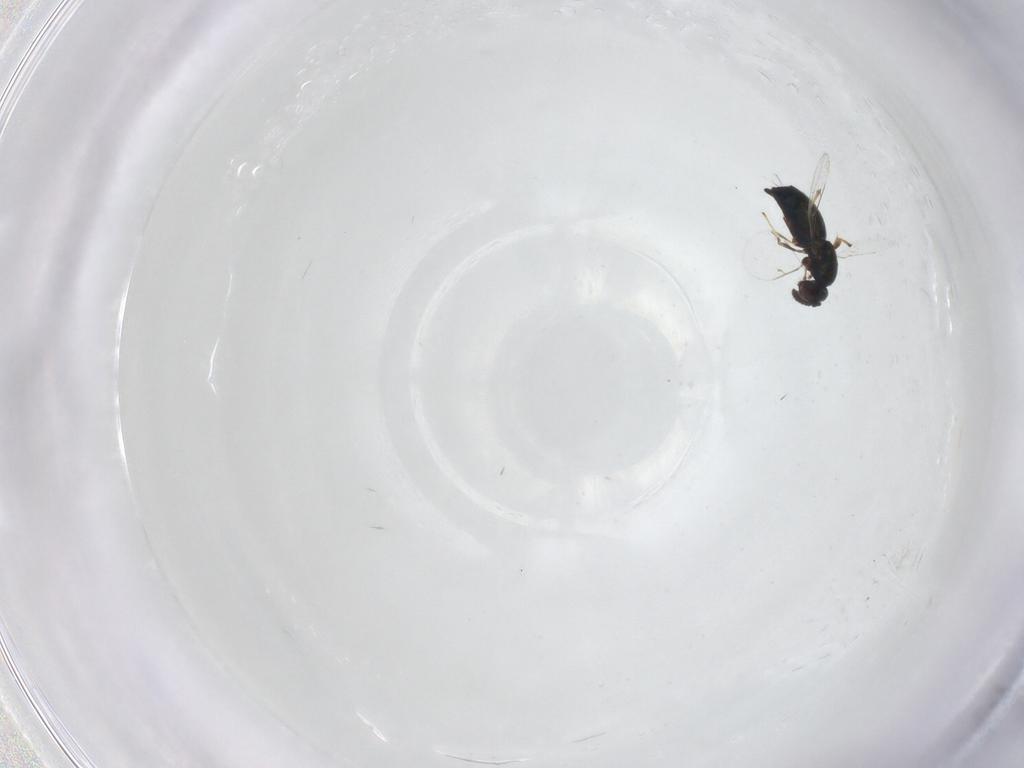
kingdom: Animalia
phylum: Arthropoda
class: Insecta
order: Hymenoptera
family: Pteromalidae
